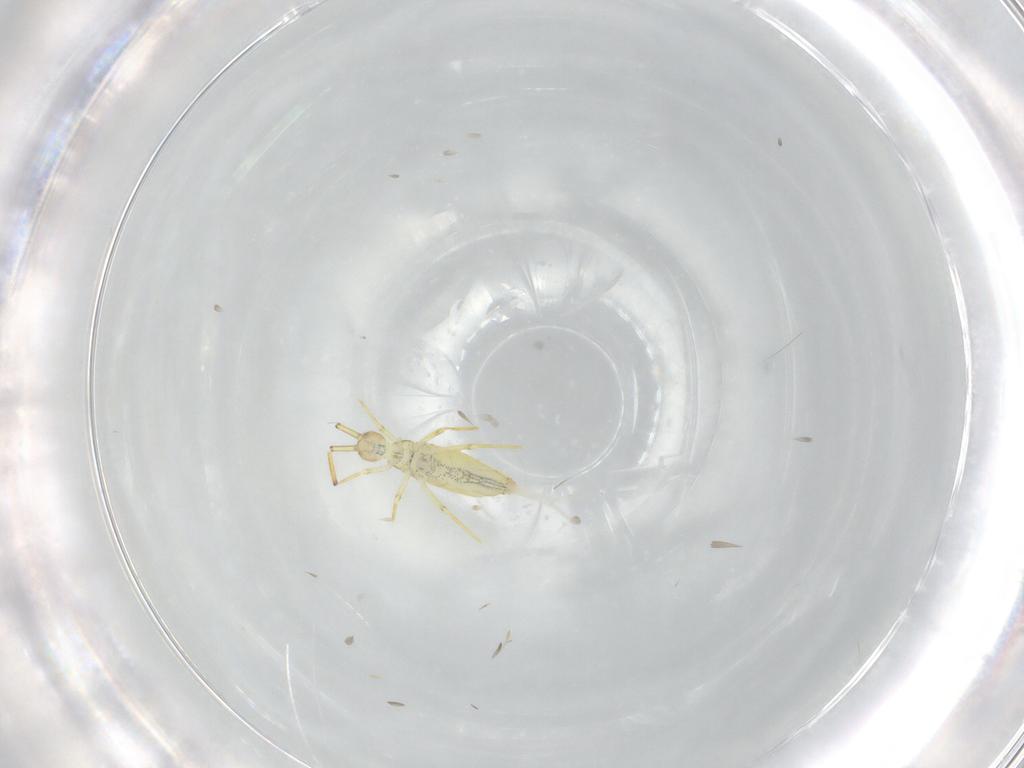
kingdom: Animalia
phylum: Arthropoda
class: Collembola
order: Entomobryomorpha
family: Paronellidae
